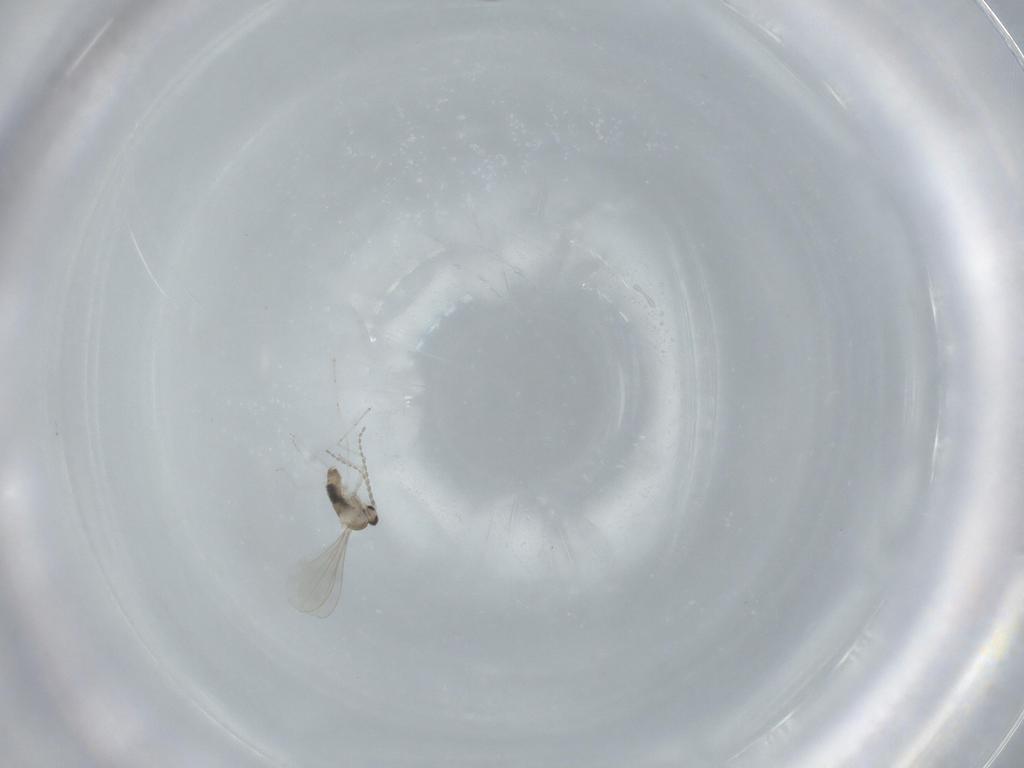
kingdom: Animalia
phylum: Arthropoda
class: Insecta
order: Diptera
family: Cecidomyiidae
